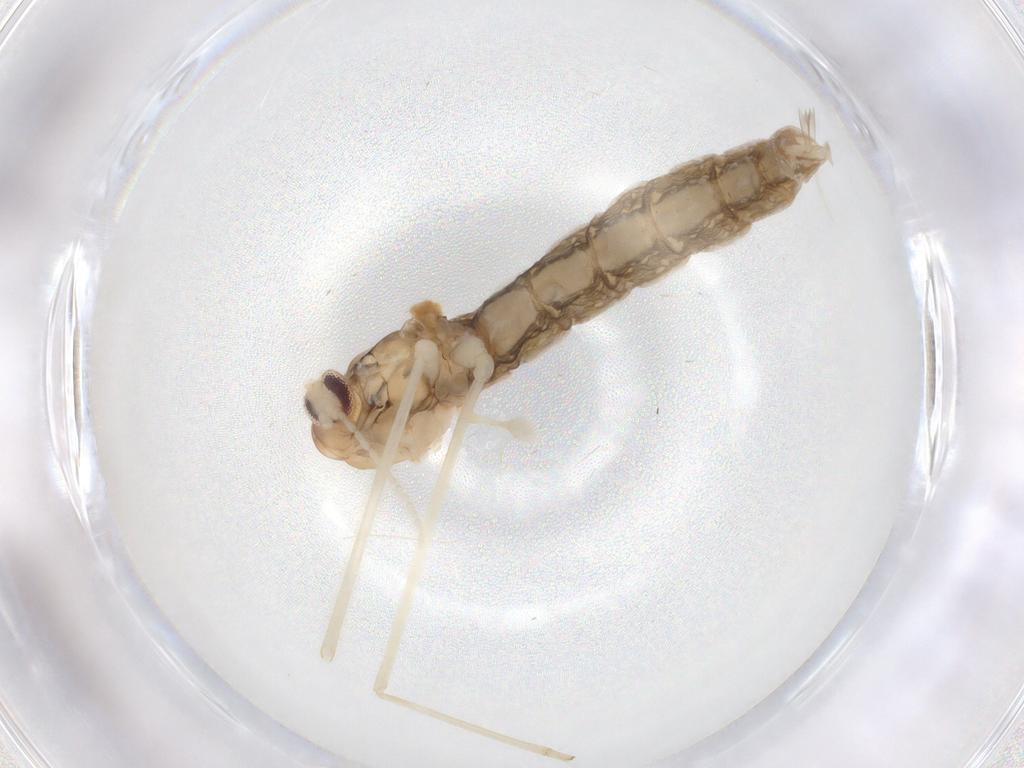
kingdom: Animalia
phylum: Arthropoda
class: Insecta
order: Diptera
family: Cecidomyiidae
